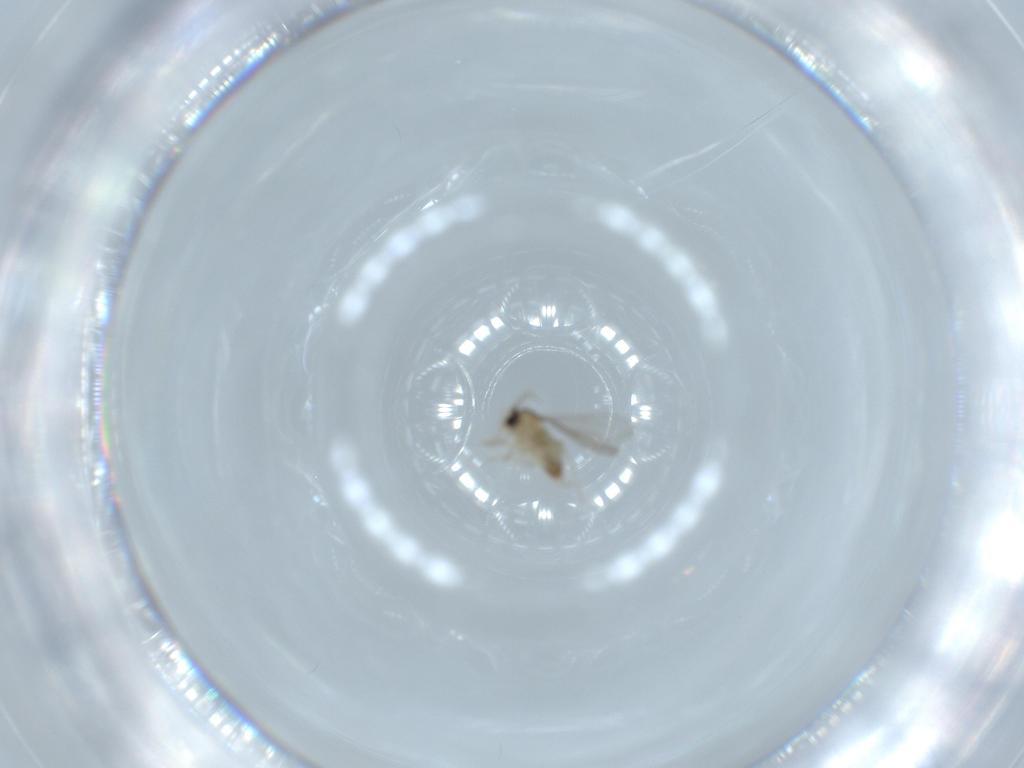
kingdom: Animalia
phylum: Arthropoda
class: Insecta
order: Diptera
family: Cecidomyiidae
